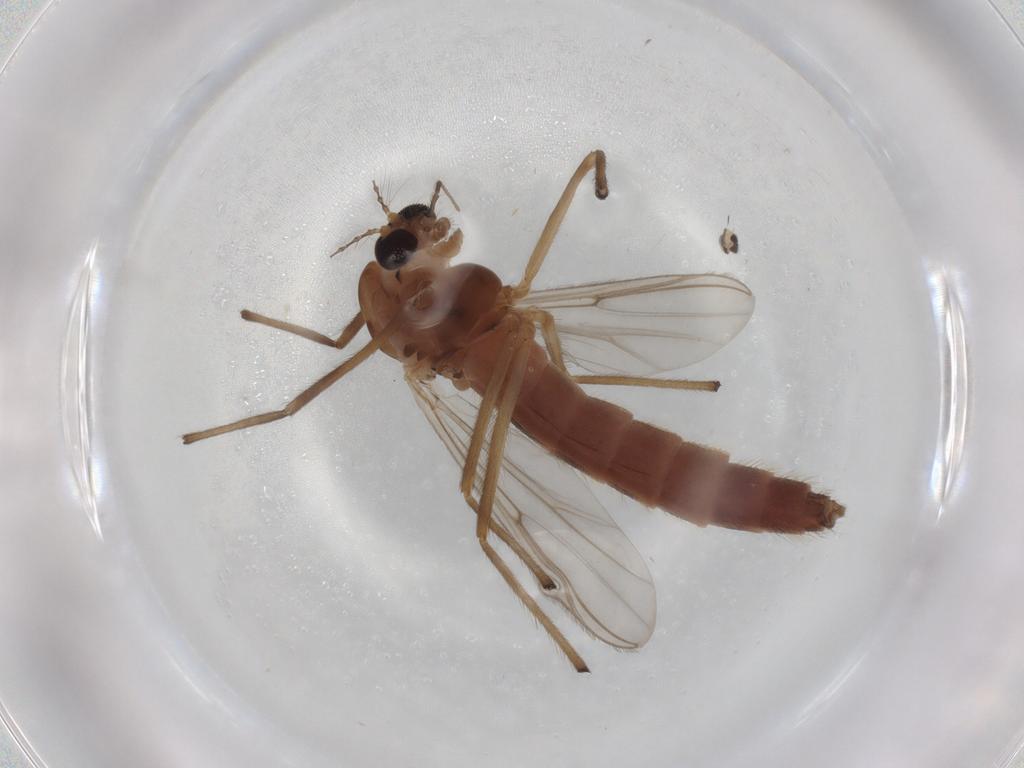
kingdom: Animalia
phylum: Arthropoda
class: Insecta
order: Diptera
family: Chironomidae
